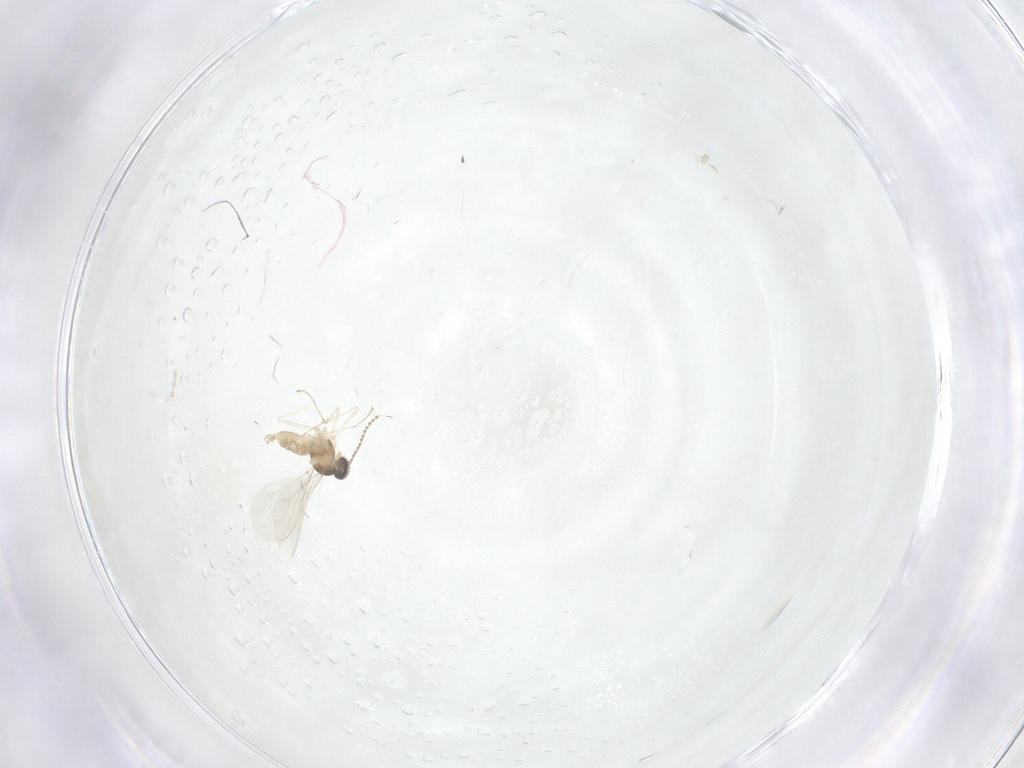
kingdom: Animalia
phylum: Arthropoda
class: Insecta
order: Diptera
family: Cecidomyiidae
